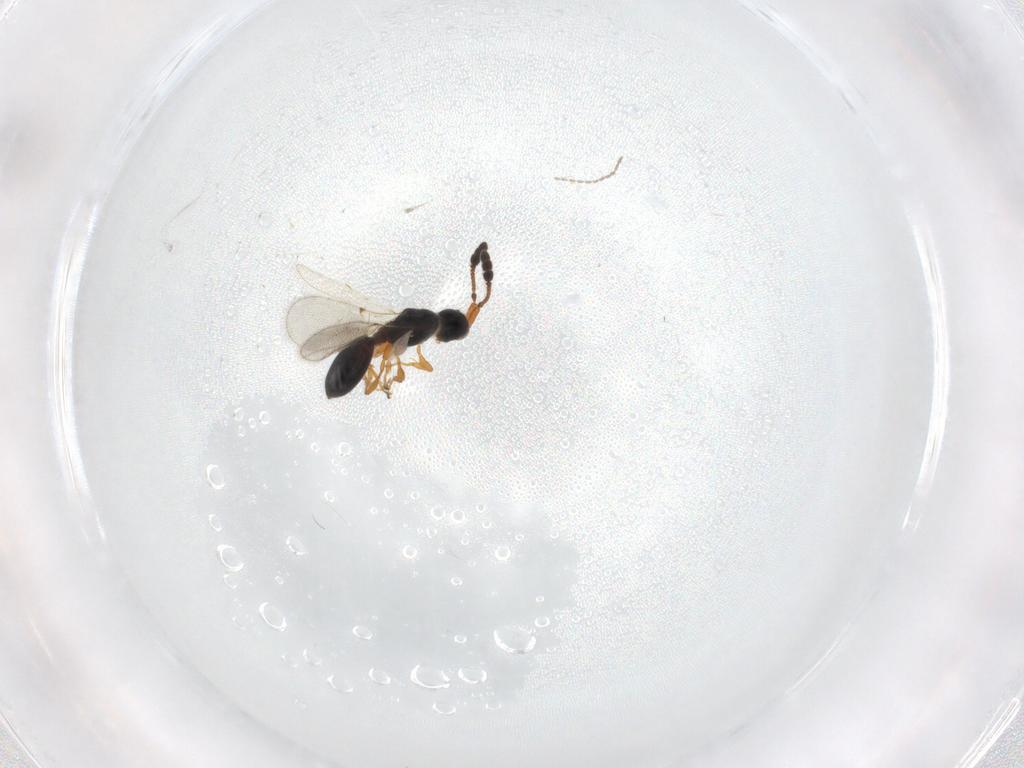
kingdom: Animalia
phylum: Arthropoda
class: Insecta
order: Hymenoptera
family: Diapriidae
